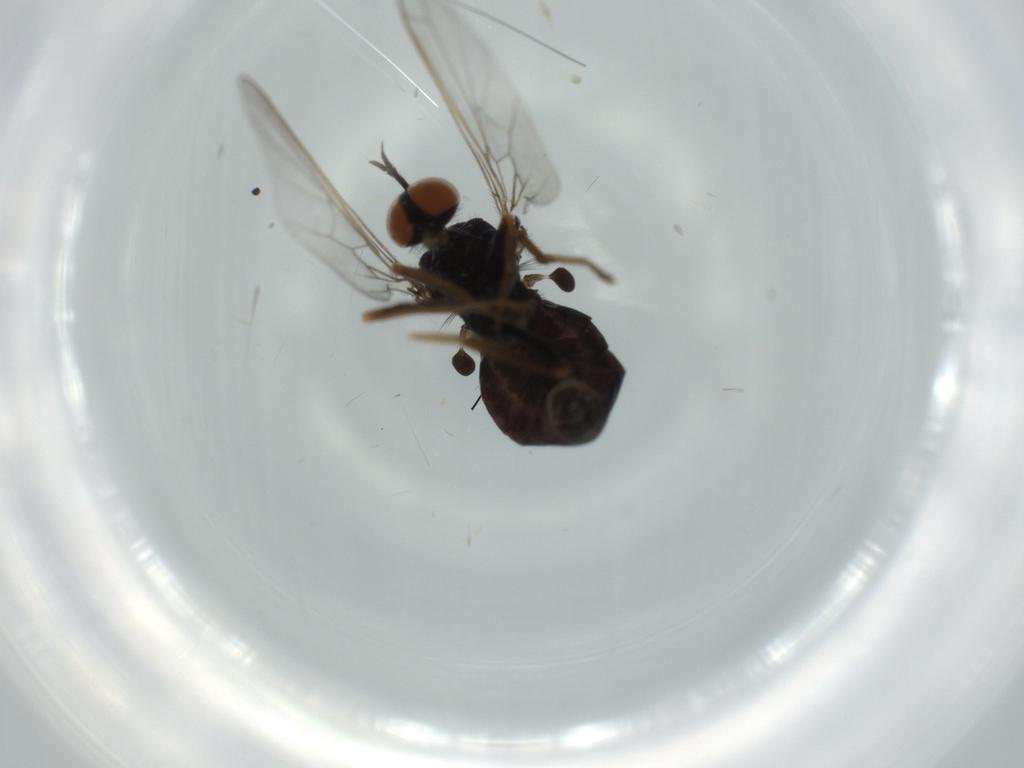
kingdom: Animalia
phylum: Arthropoda
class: Insecta
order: Diptera
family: Empididae
